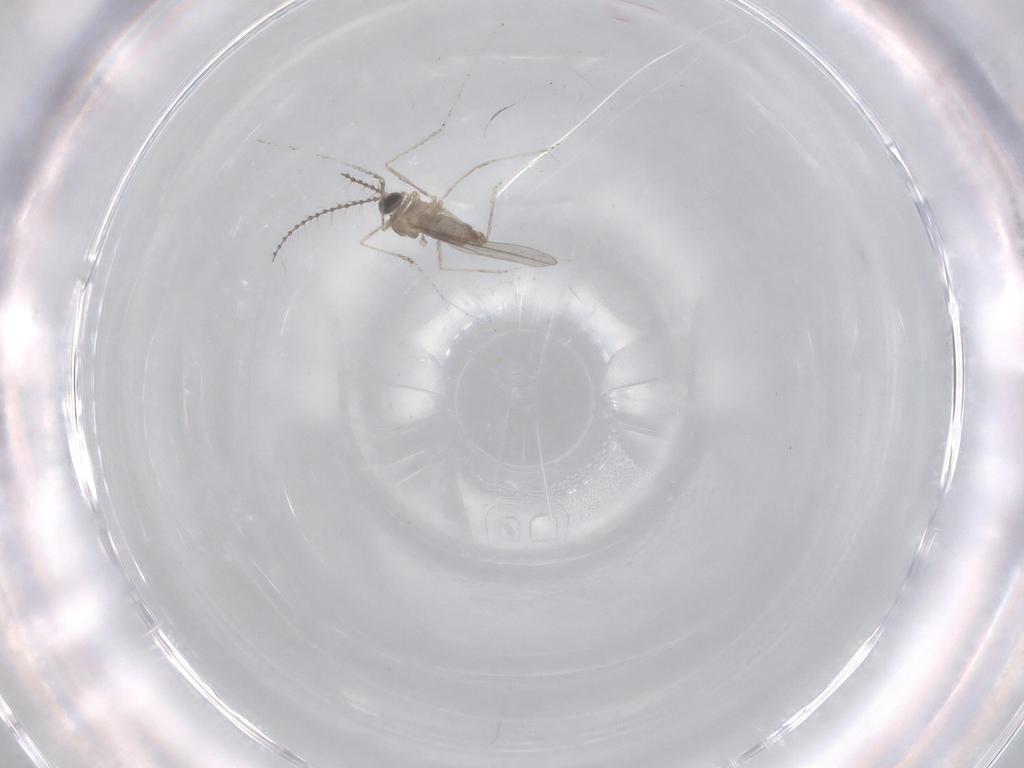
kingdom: Animalia
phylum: Arthropoda
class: Insecta
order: Diptera
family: Cecidomyiidae
